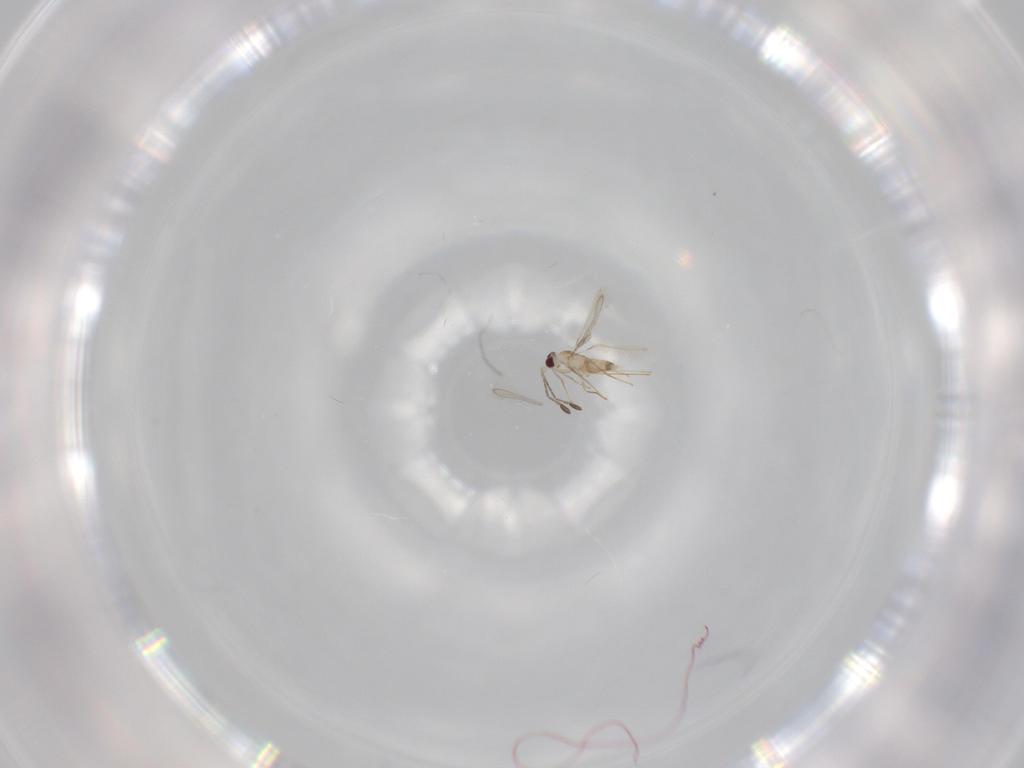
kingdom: Animalia
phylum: Arthropoda
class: Insecta
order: Hymenoptera
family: Mymaridae
